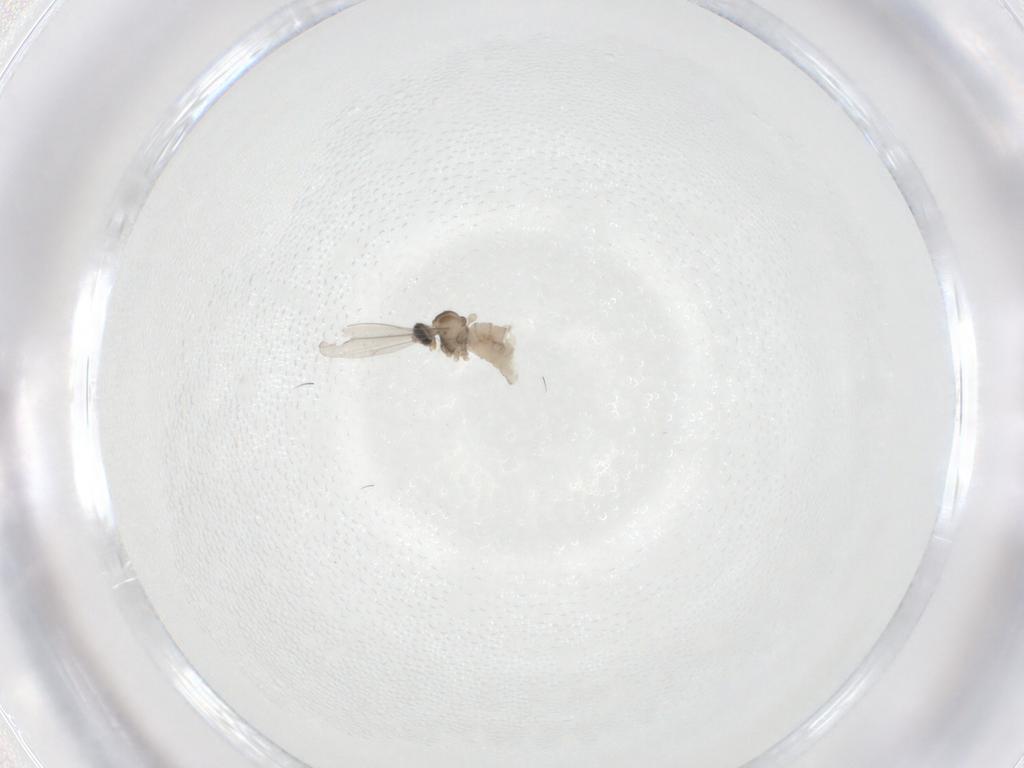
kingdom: Animalia
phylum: Arthropoda
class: Insecta
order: Diptera
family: Cecidomyiidae
